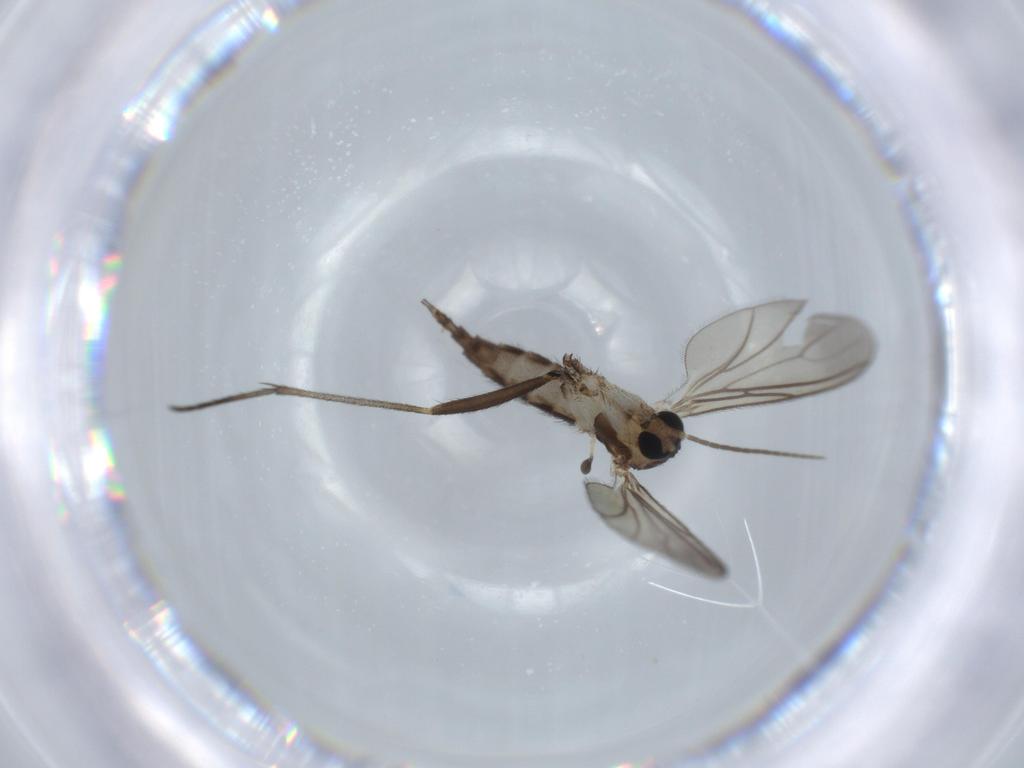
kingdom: Animalia
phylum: Arthropoda
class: Insecta
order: Diptera
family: Sciaridae
